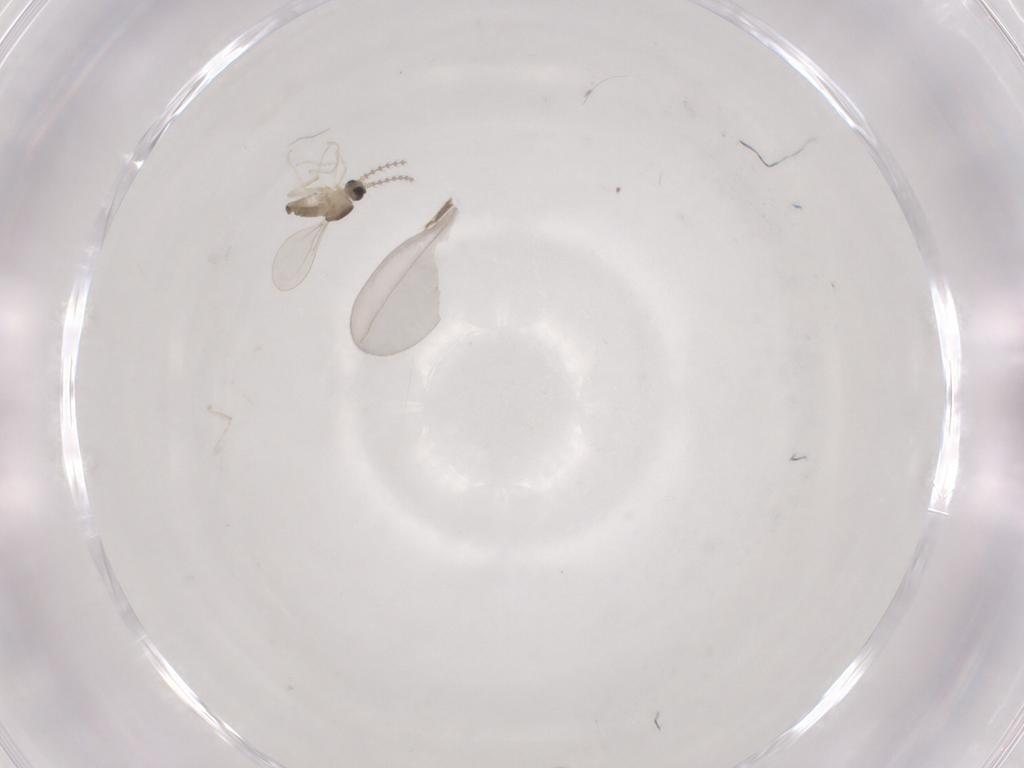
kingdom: Animalia
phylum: Arthropoda
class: Insecta
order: Diptera
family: Cecidomyiidae
